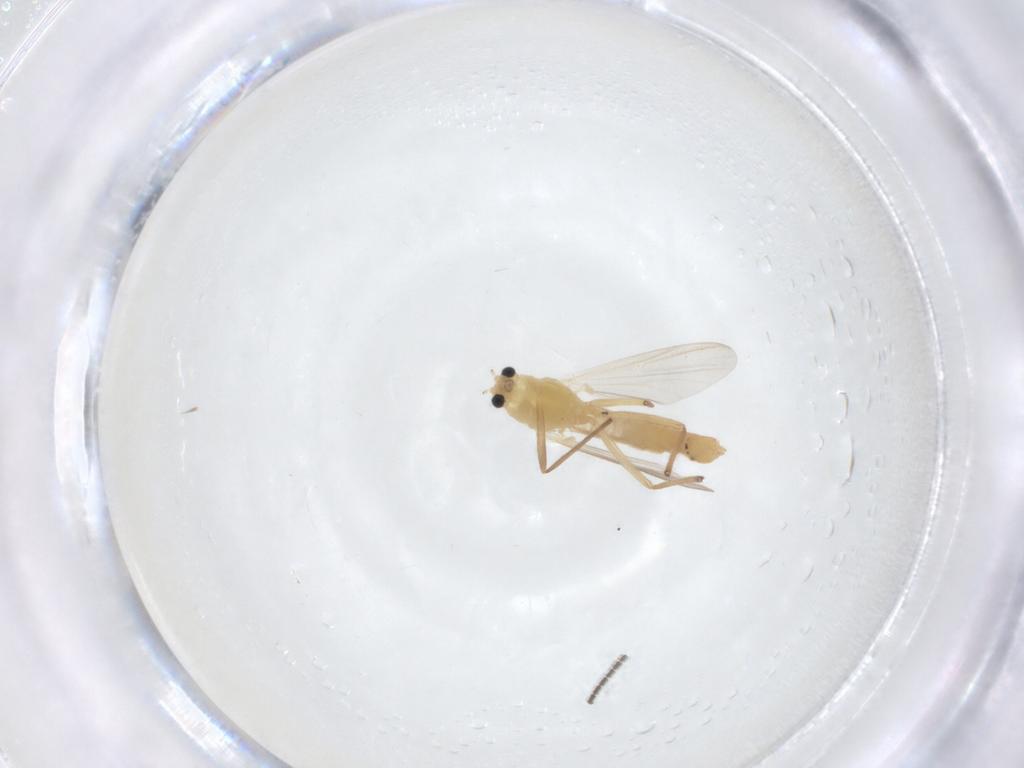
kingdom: Animalia
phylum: Arthropoda
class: Insecta
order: Diptera
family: Chironomidae
